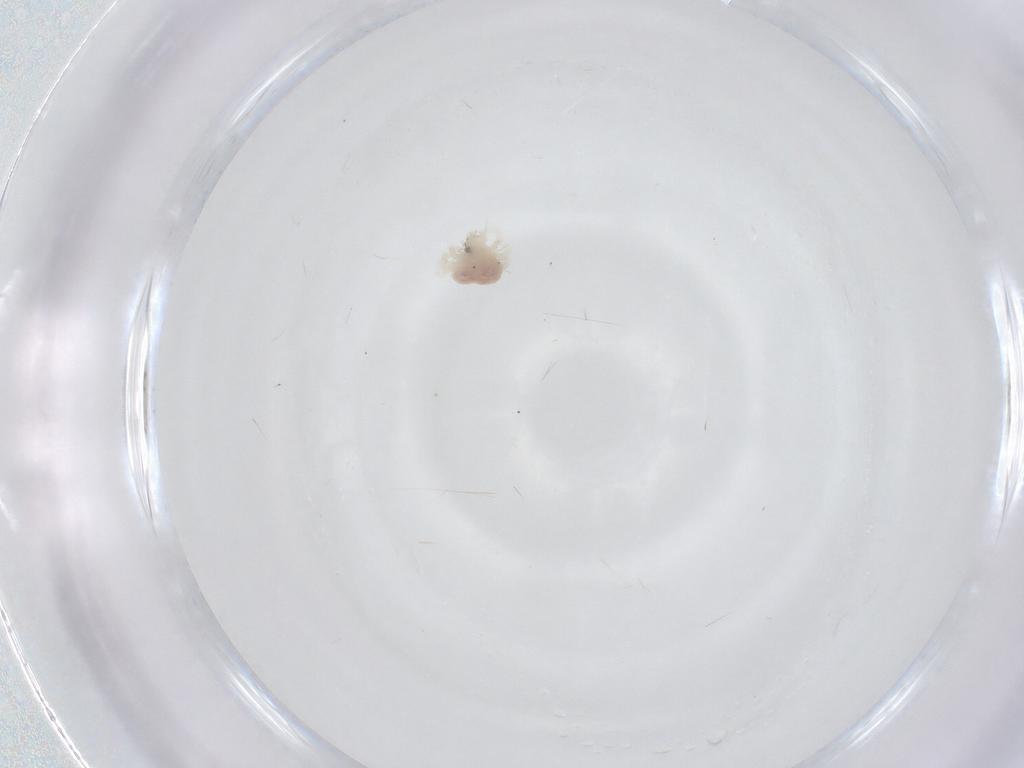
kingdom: Animalia
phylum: Arthropoda
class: Arachnida
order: Trombidiformes
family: Anystidae
